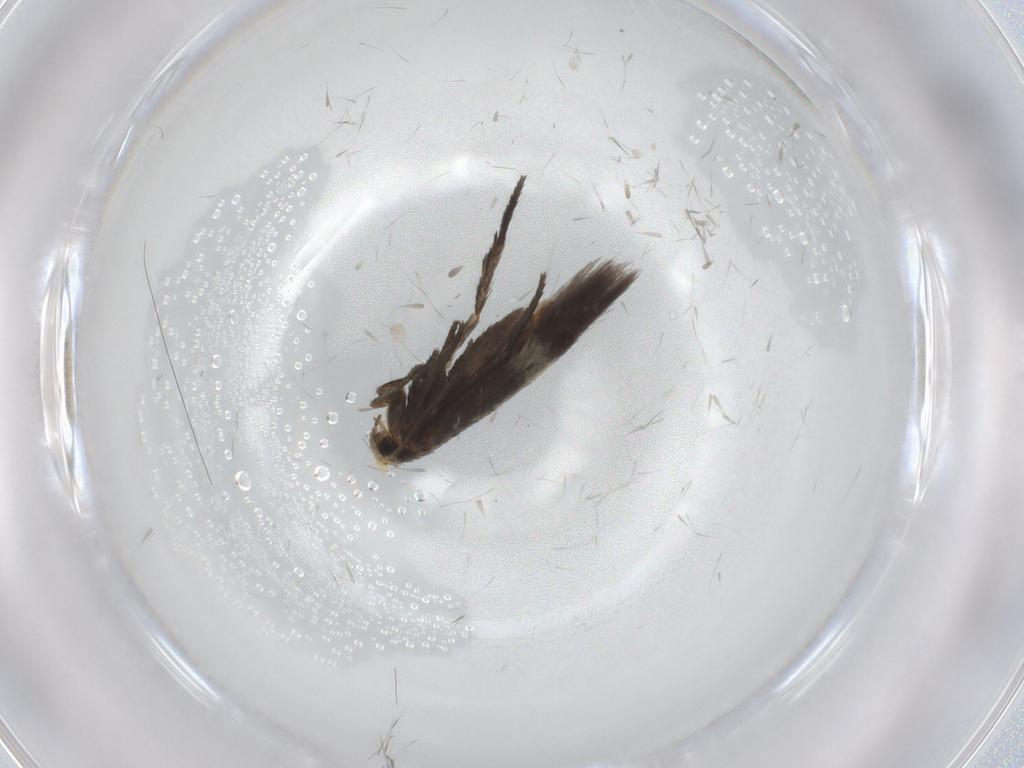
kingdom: Animalia
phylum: Arthropoda
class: Insecta
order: Lepidoptera
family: Nepticulidae
